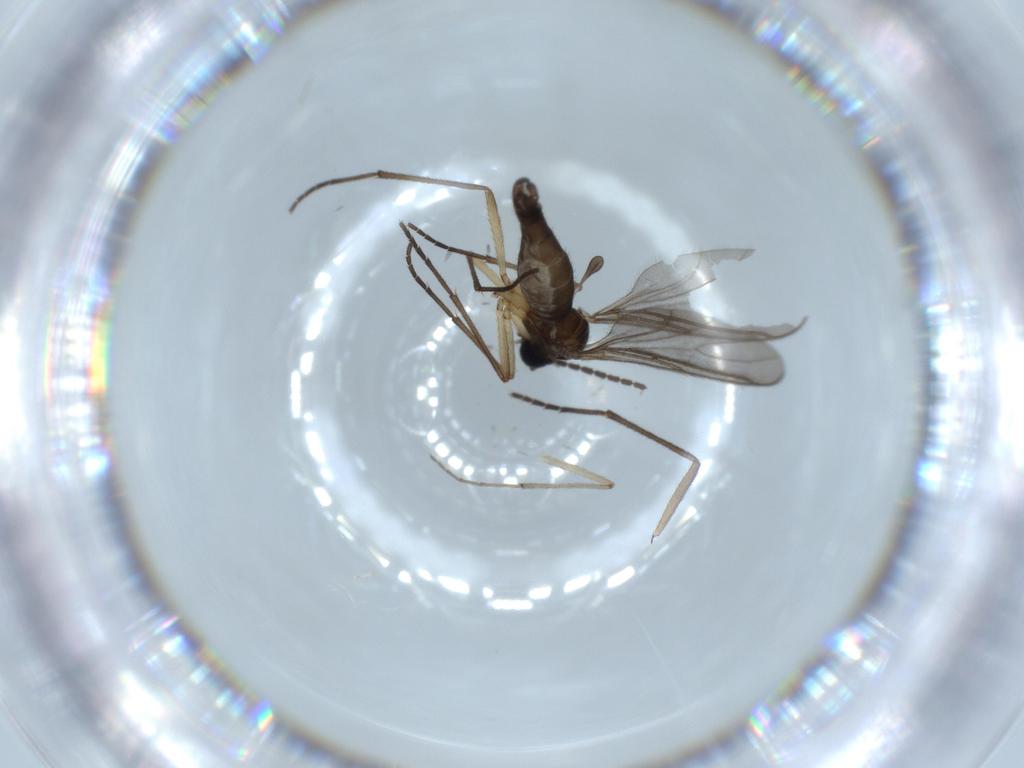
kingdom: Animalia
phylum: Arthropoda
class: Insecta
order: Diptera
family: Chironomidae
